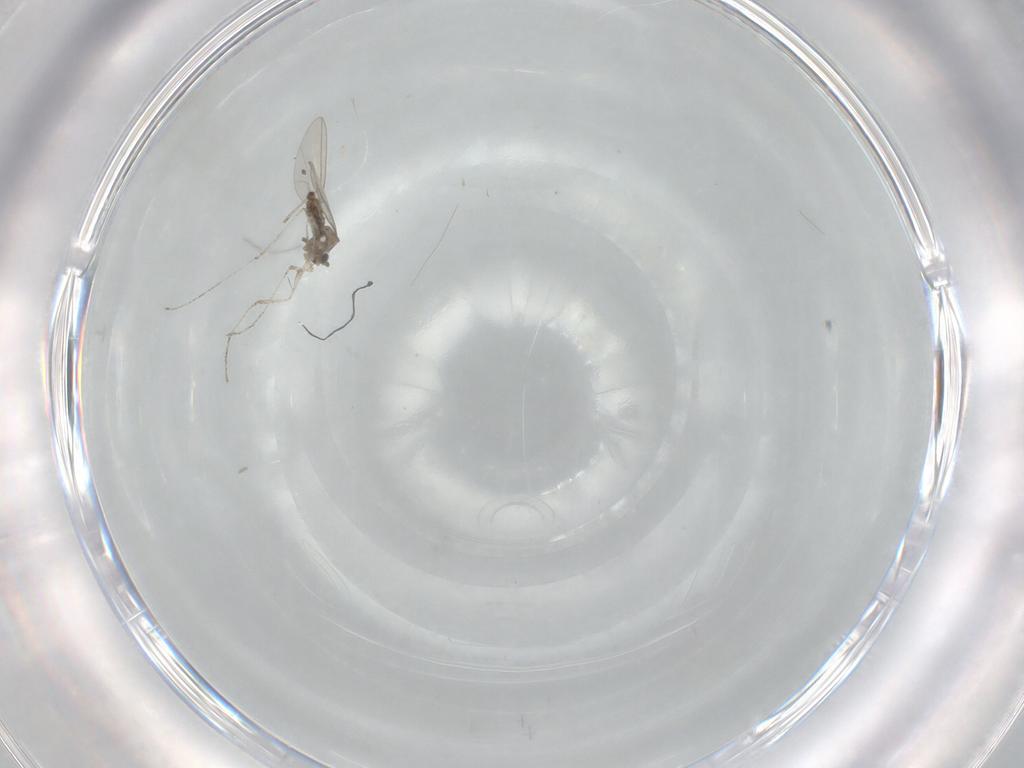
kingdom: Animalia
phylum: Arthropoda
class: Insecta
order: Diptera
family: Cecidomyiidae
